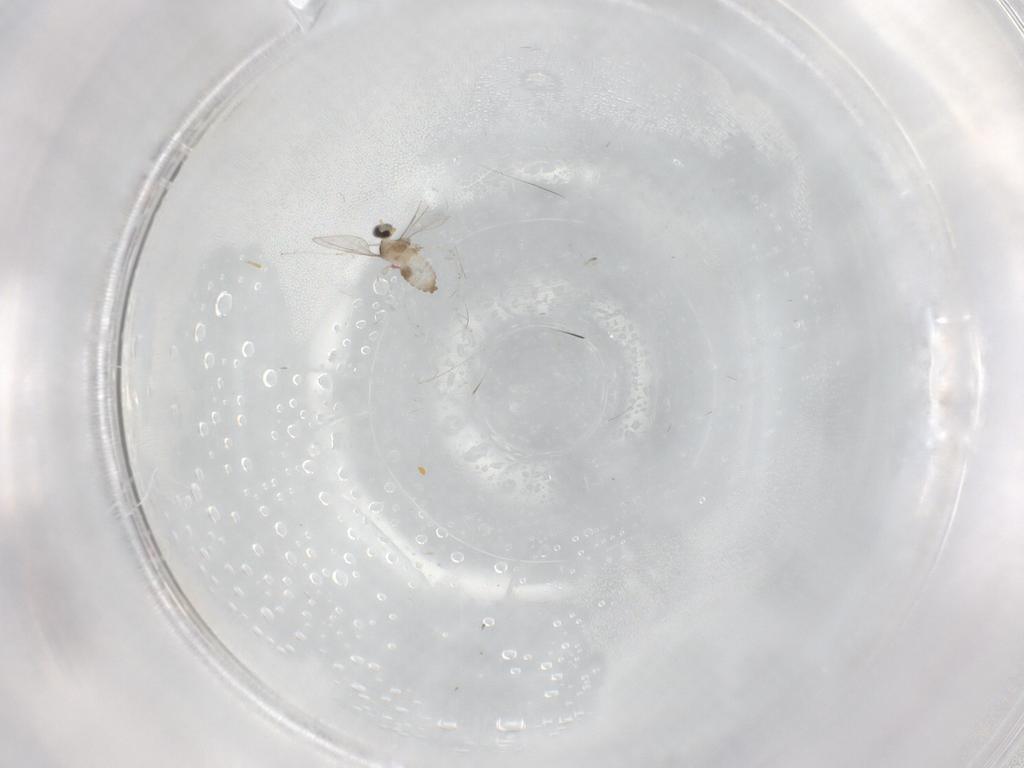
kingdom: Animalia
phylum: Arthropoda
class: Insecta
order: Diptera
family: Cecidomyiidae
